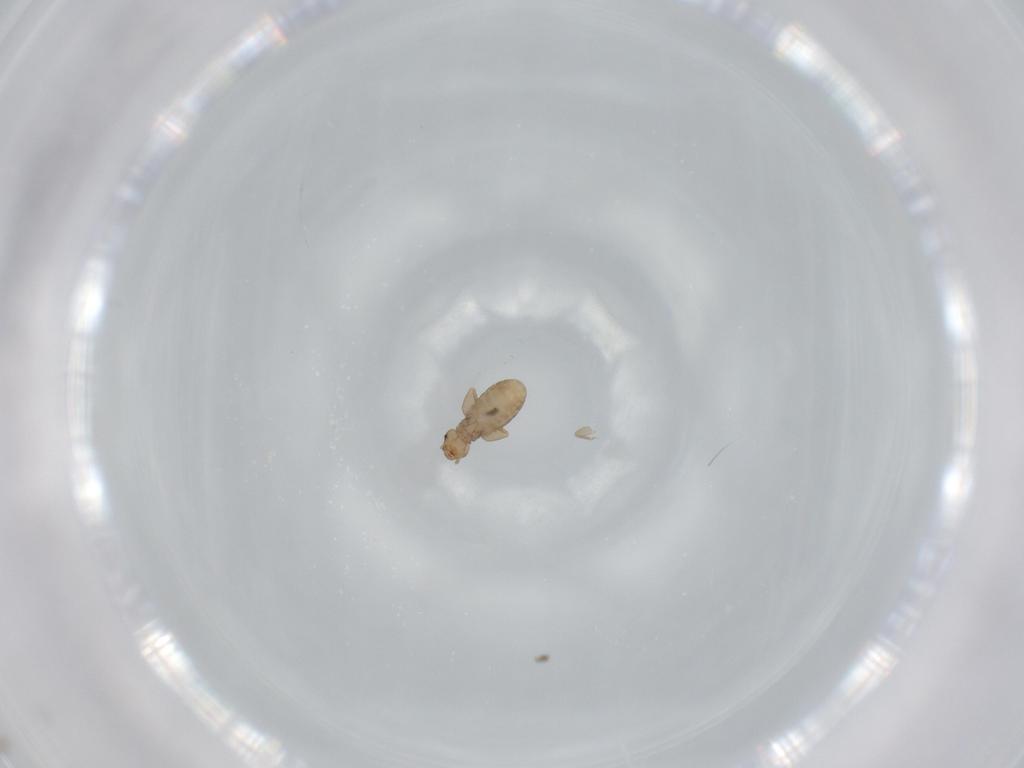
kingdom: Animalia
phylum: Arthropoda
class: Insecta
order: Psocodea
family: Liposcelididae
